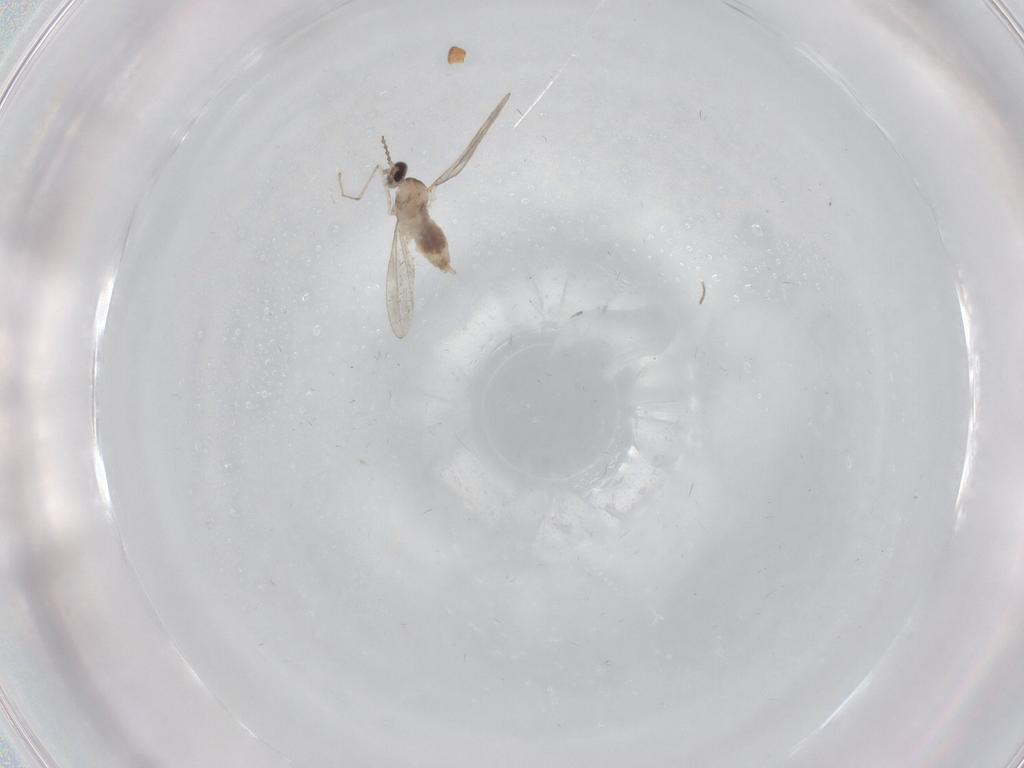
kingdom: Animalia
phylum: Arthropoda
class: Insecta
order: Diptera
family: Cecidomyiidae
